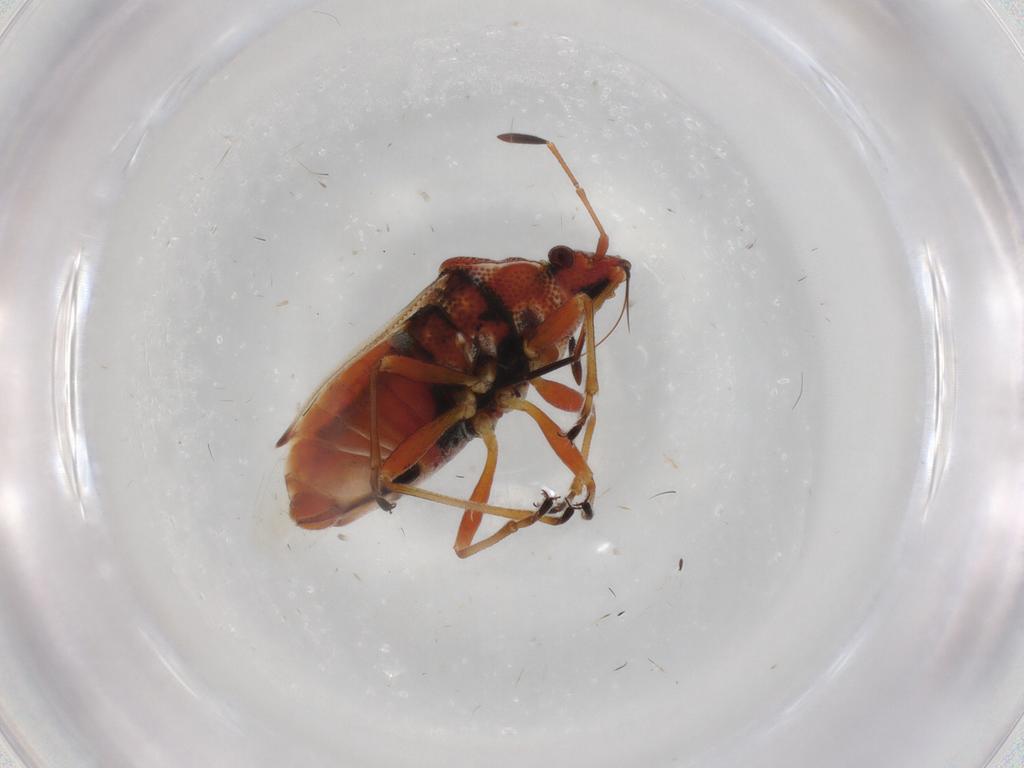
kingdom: Animalia
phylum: Arthropoda
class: Insecta
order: Hemiptera
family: Lygaeidae
